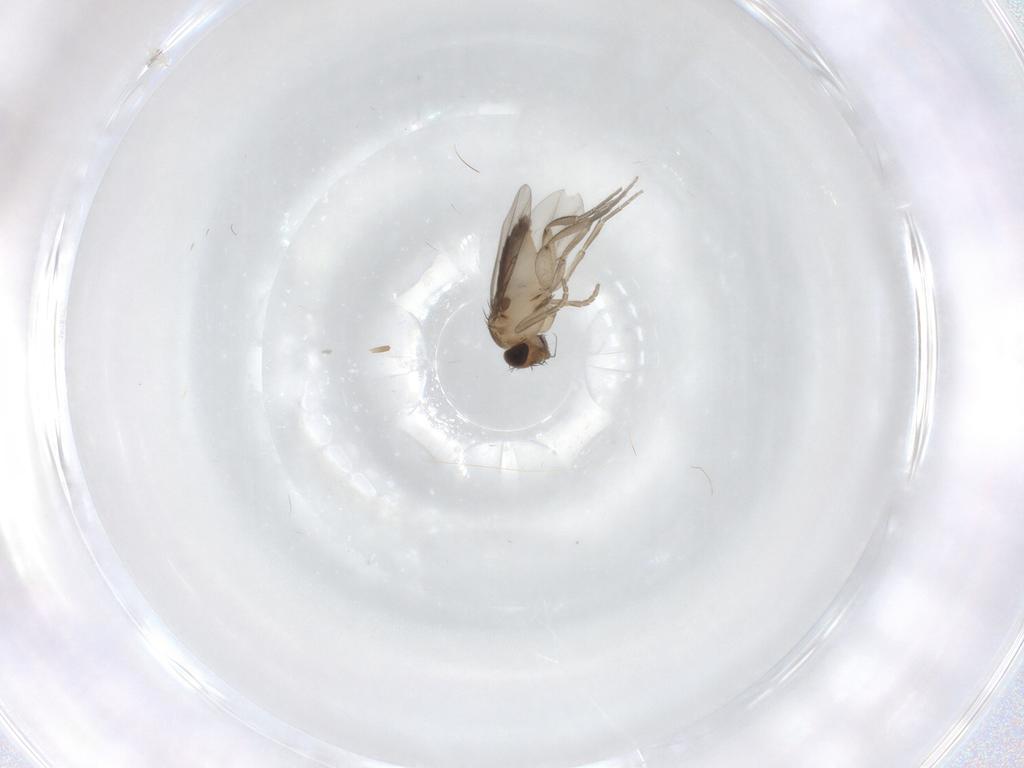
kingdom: Animalia
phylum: Arthropoda
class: Insecta
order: Diptera
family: Phoridae
